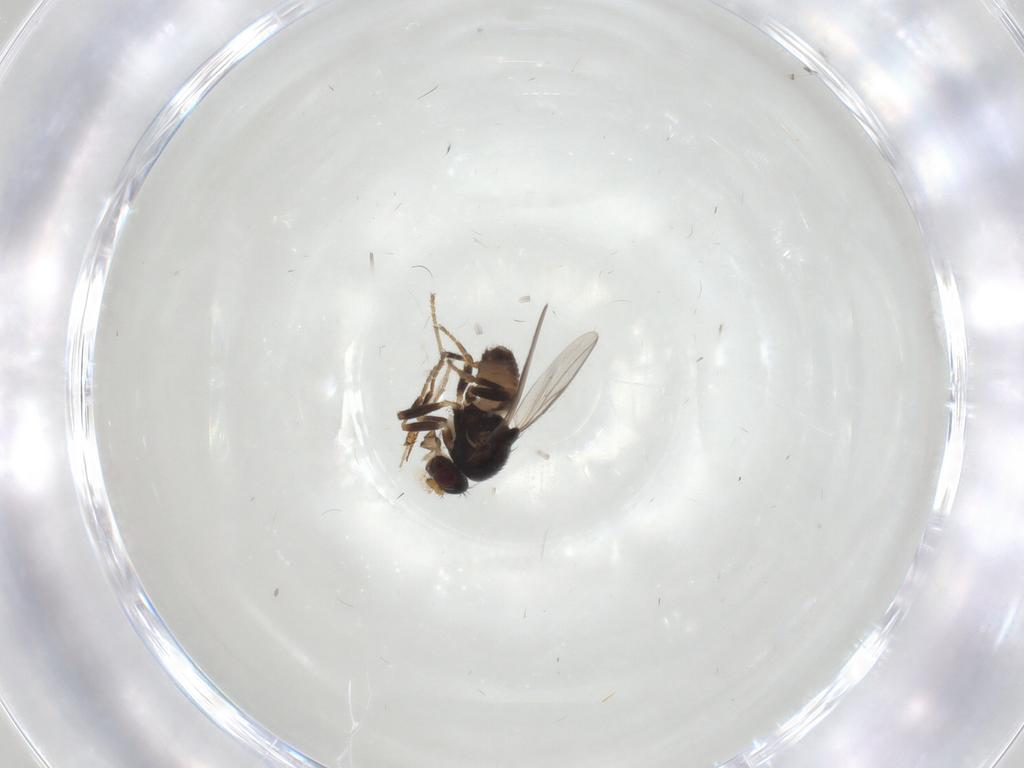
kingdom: Animalia
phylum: Arthropoda
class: Insecta
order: Diptera
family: Sphaeroceridae
